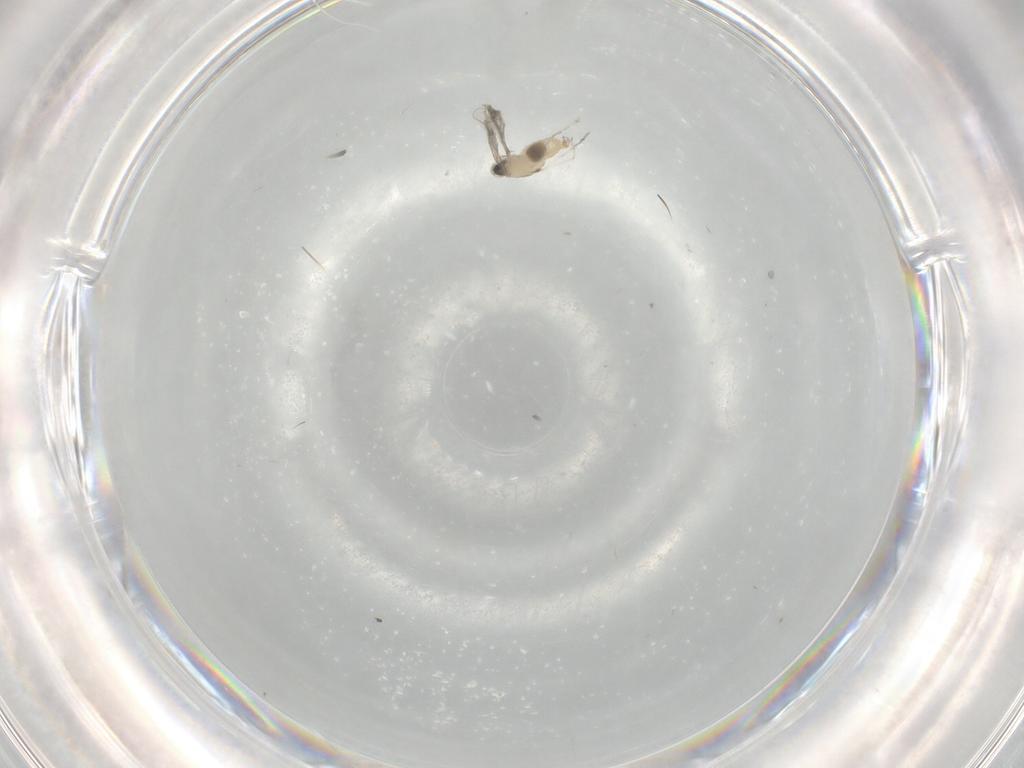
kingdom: Animalia
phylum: Arthropoda
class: Insecta
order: Diptera
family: Cecidomyiidae
